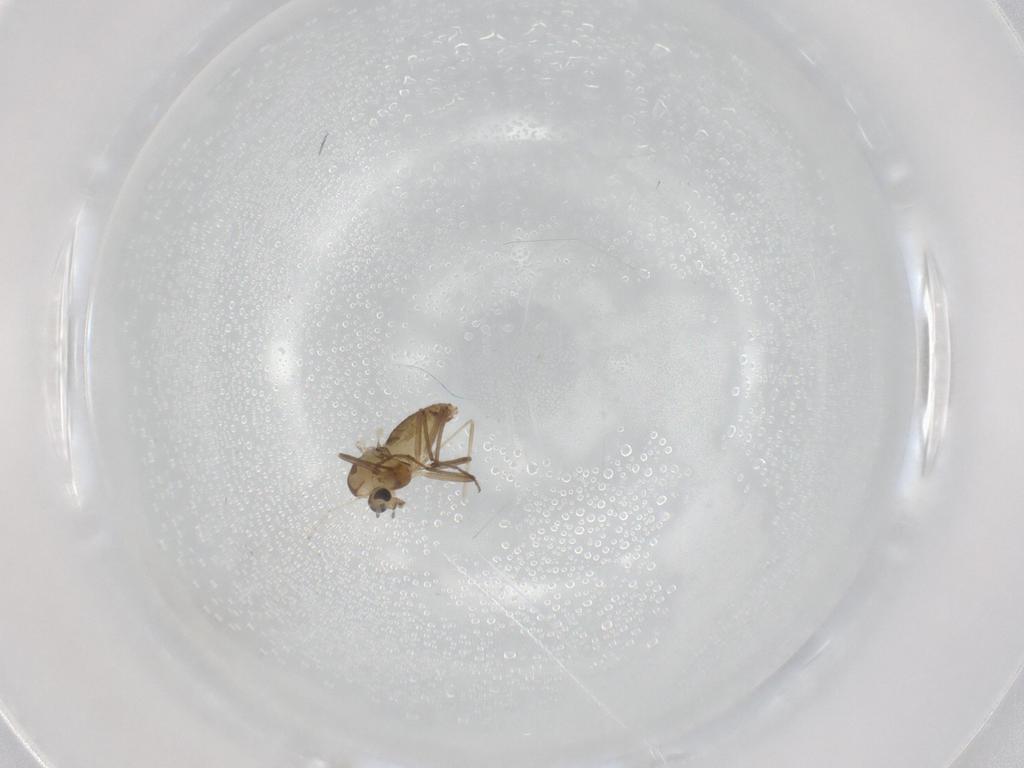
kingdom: Animalia
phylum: Arthropoda
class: Insecta
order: Diptera
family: Chironomidae
